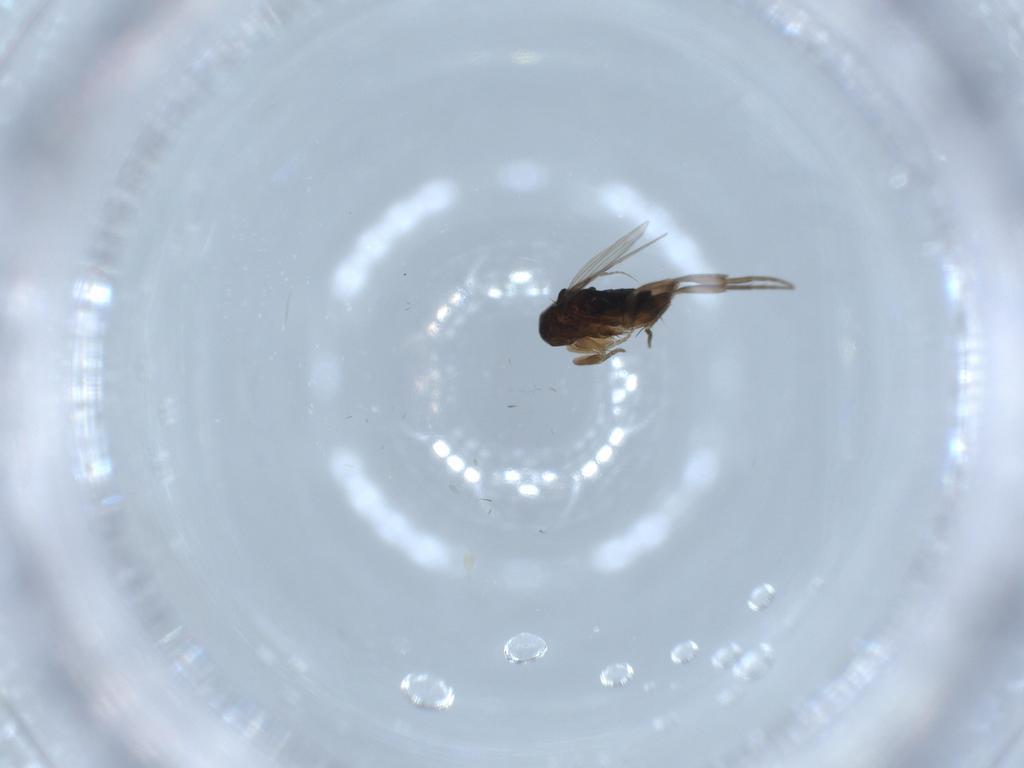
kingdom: Animalia
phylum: Arthropoda
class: Insecta
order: Diptera
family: Phoridae
